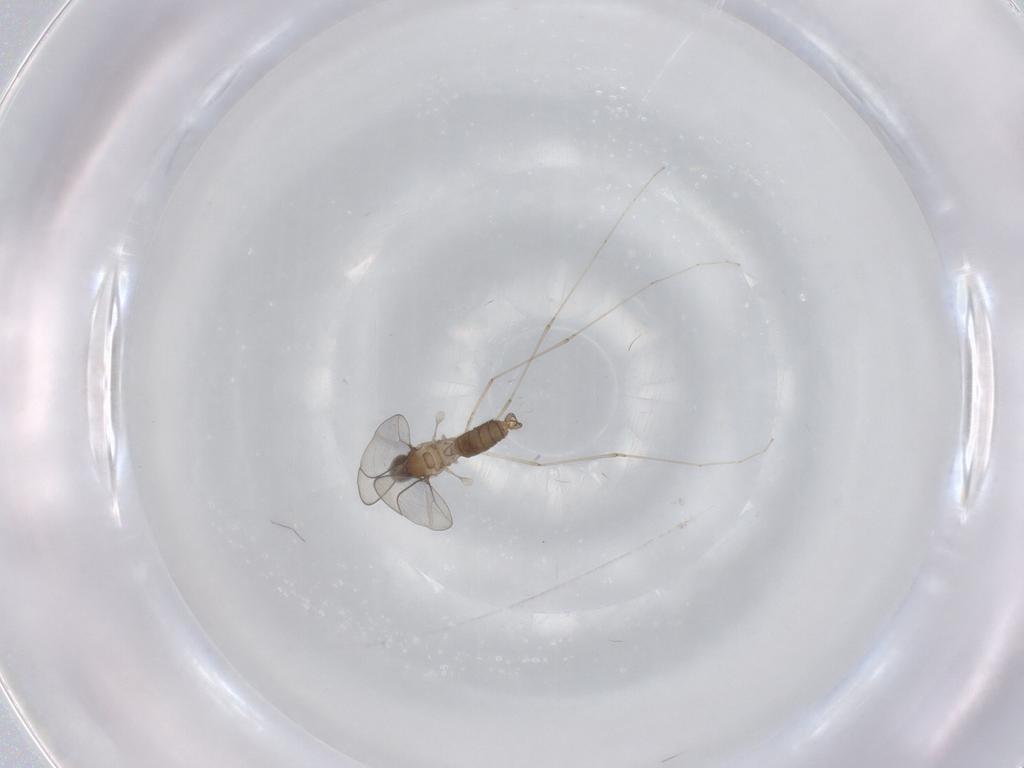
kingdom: Animalia
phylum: Arthropoda
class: Insecta
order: Diptera
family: Cecidomyiidae
